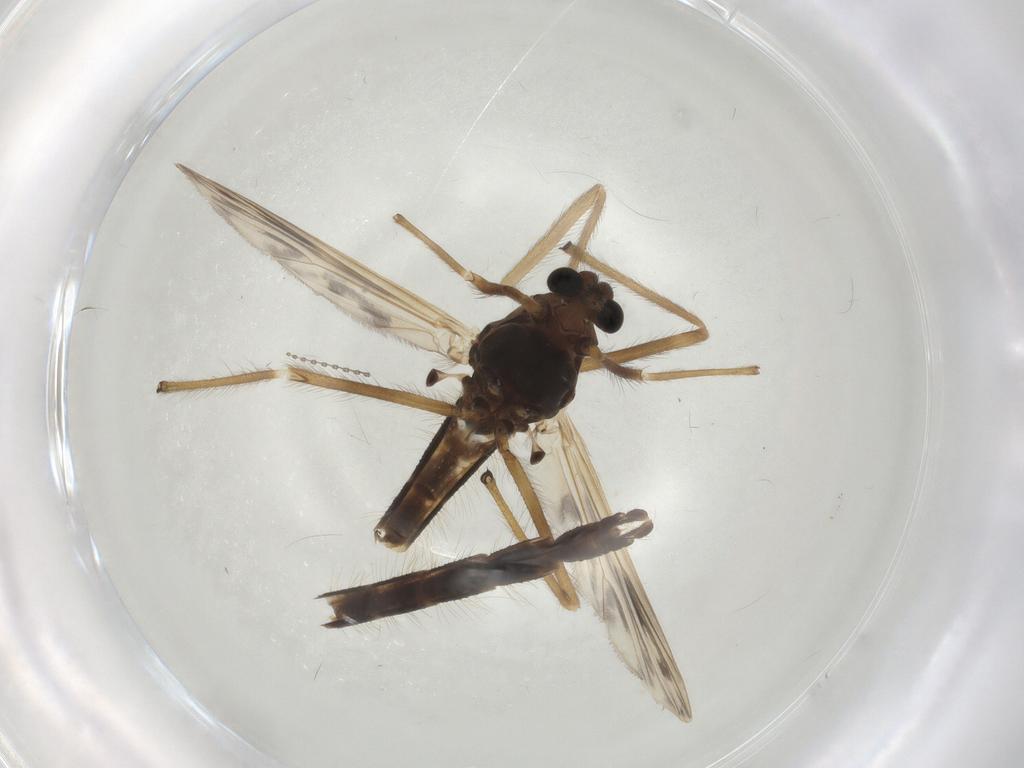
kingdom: Animalia
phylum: Arthropoda
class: Insecta
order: Diptera
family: Sciaridae
